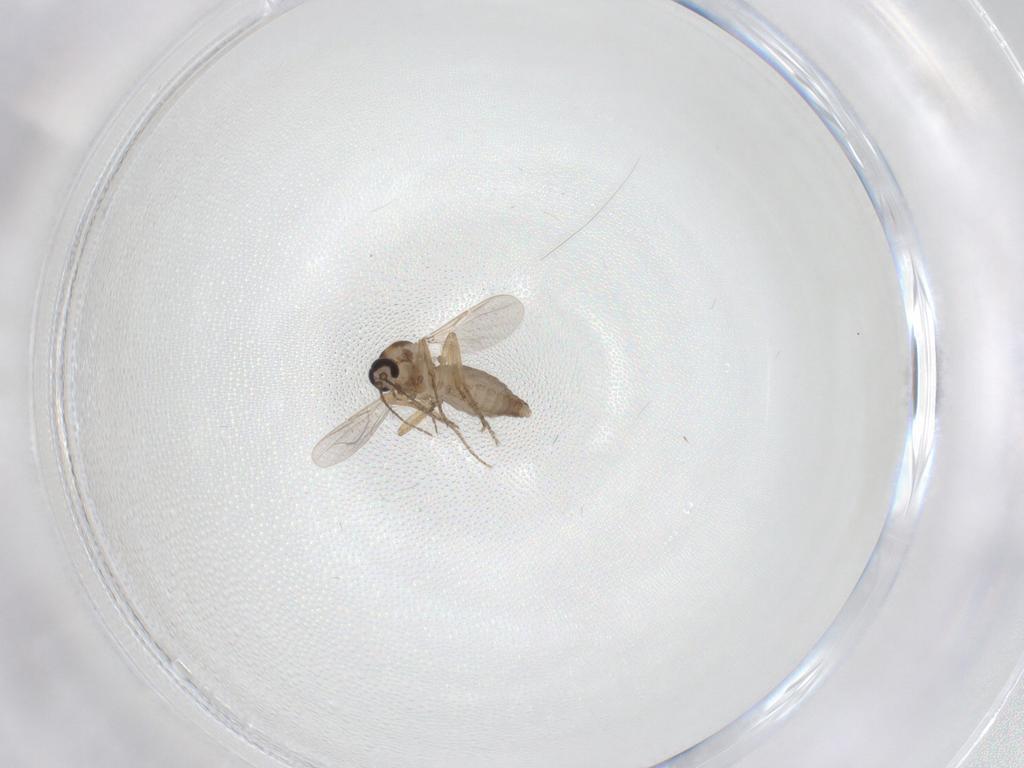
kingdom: Animalia
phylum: Arthropoda
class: Insecta
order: Diptera
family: Ceratopogonidae
